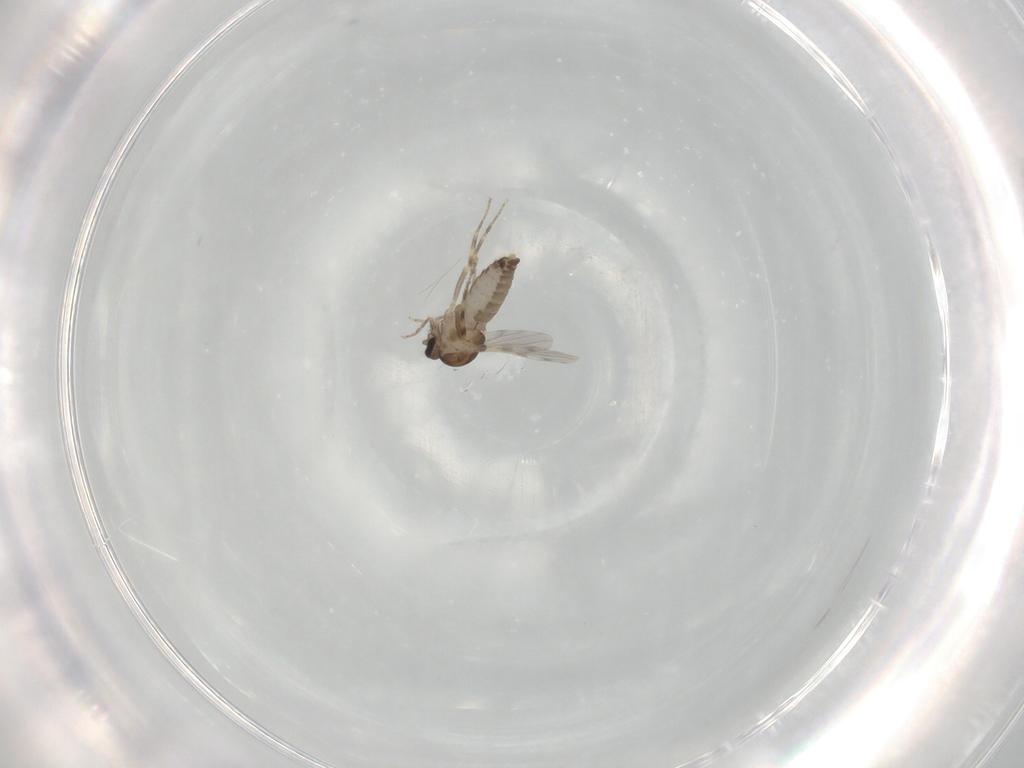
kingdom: Animalia
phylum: Arthropoda
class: Insecta
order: Diptera
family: Ceratopogonidae
